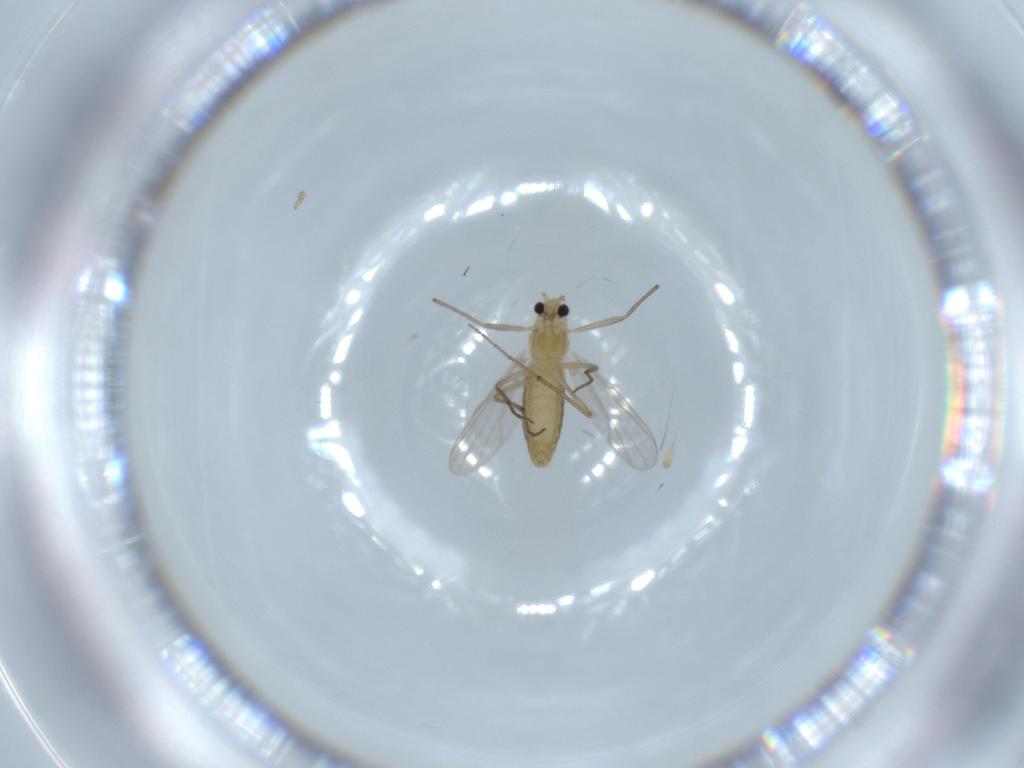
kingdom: Animalia
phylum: Arthropoda
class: Insecta
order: Diptera
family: Chironomidae
